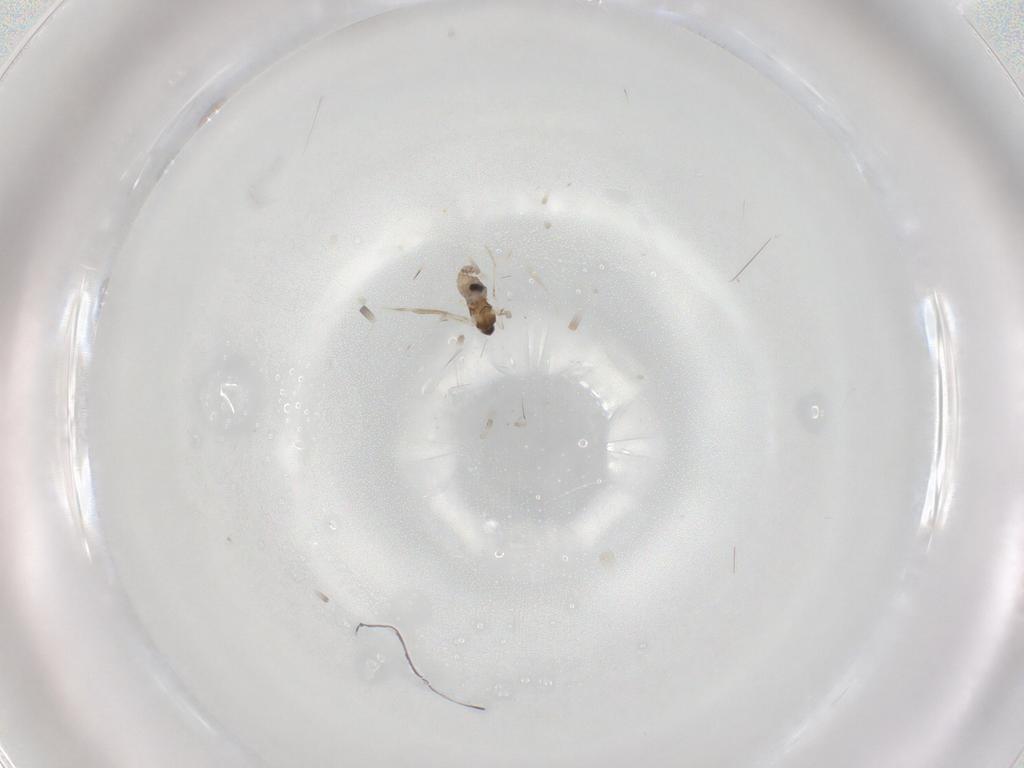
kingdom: Animalia
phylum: Arthropoda
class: Insecta
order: Diptera
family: Cecidomyiidae
